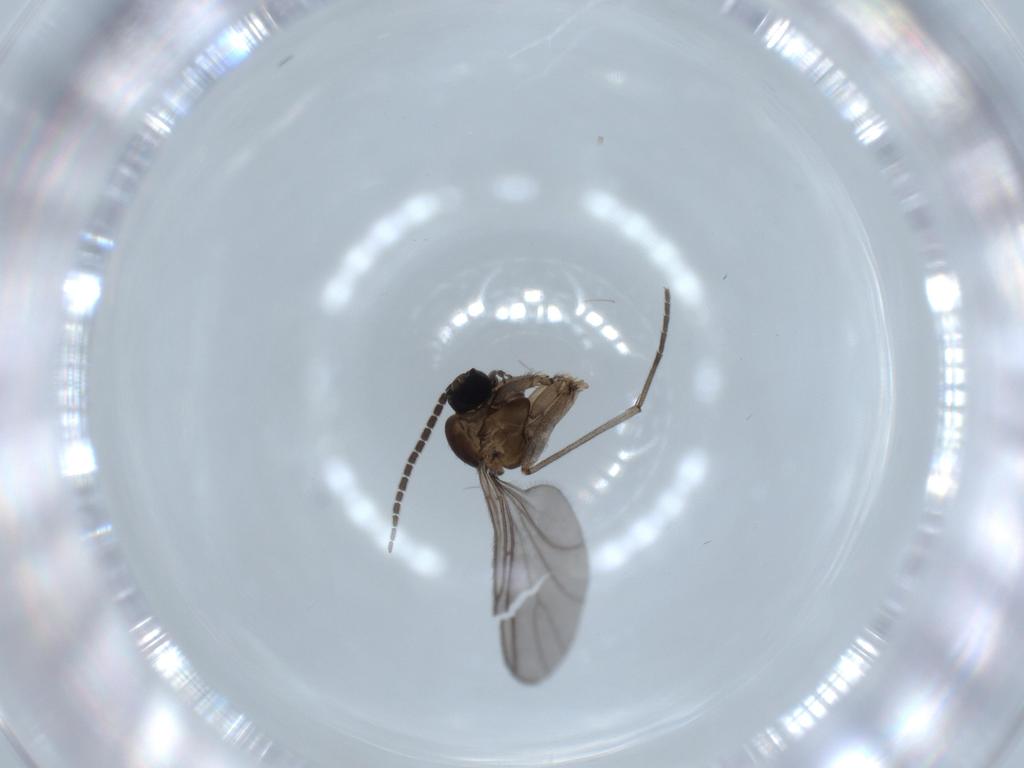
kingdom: Animalia
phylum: Arthropoda
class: Insecta
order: Diptera
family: Sciaridae
